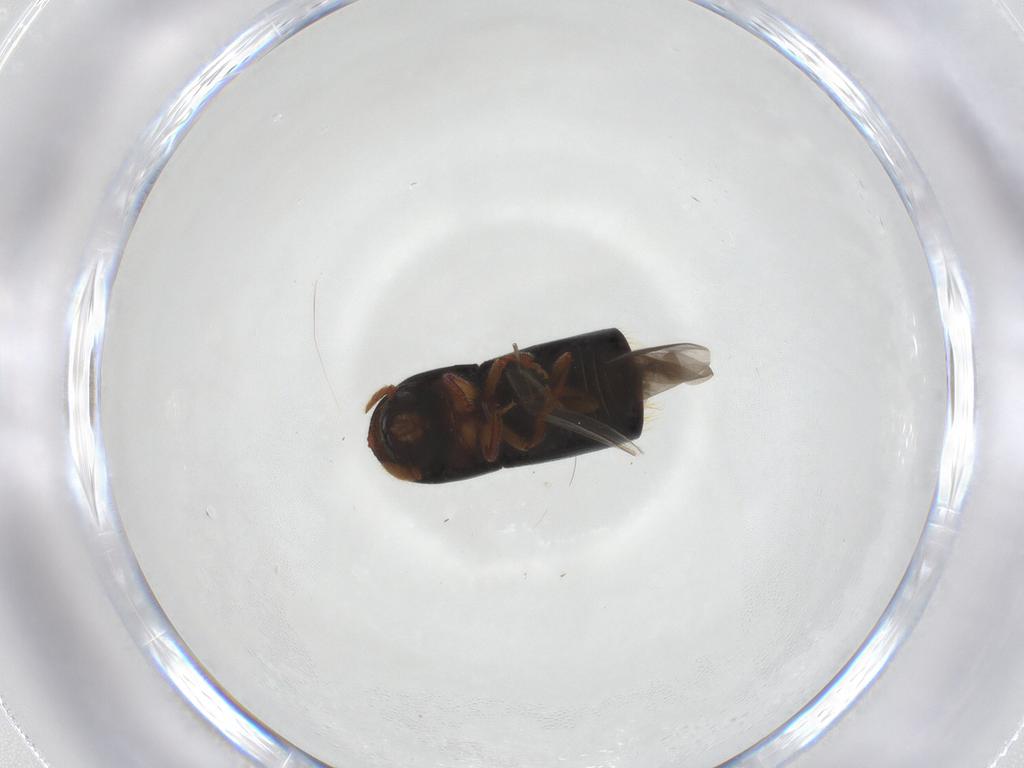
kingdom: Animalia
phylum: Arthropoda
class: Insecta
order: Coleoptera
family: Curculionidae
